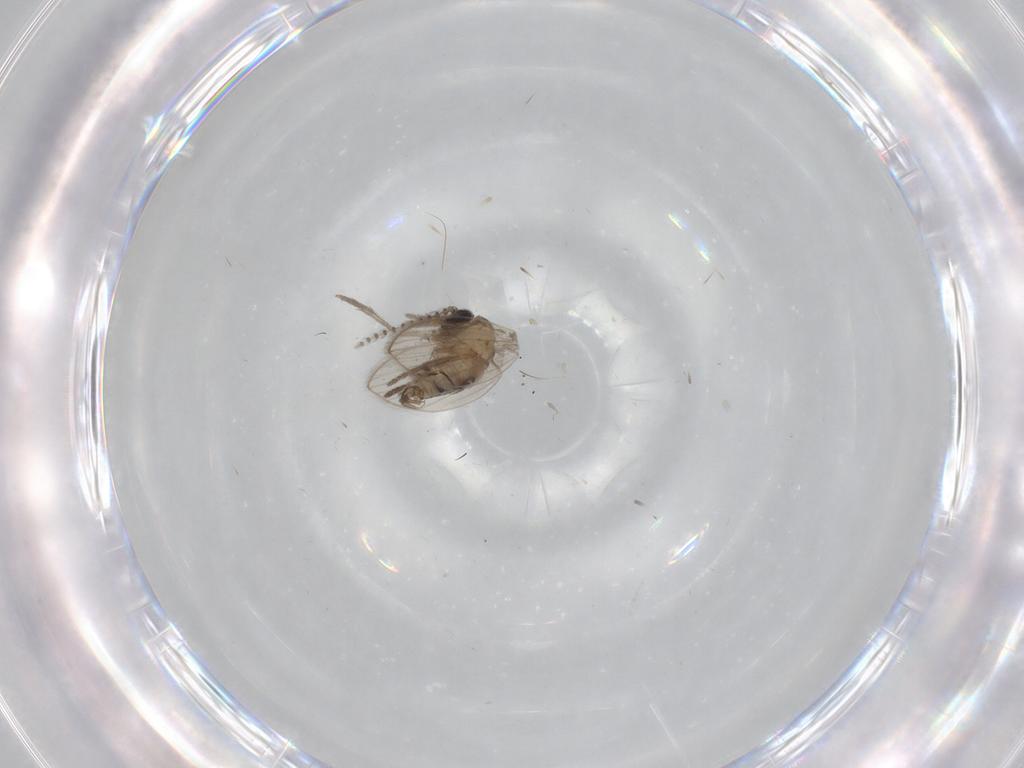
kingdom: Animalia
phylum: Arthropoda
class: Insecta
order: Diptera
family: Psychodidae
